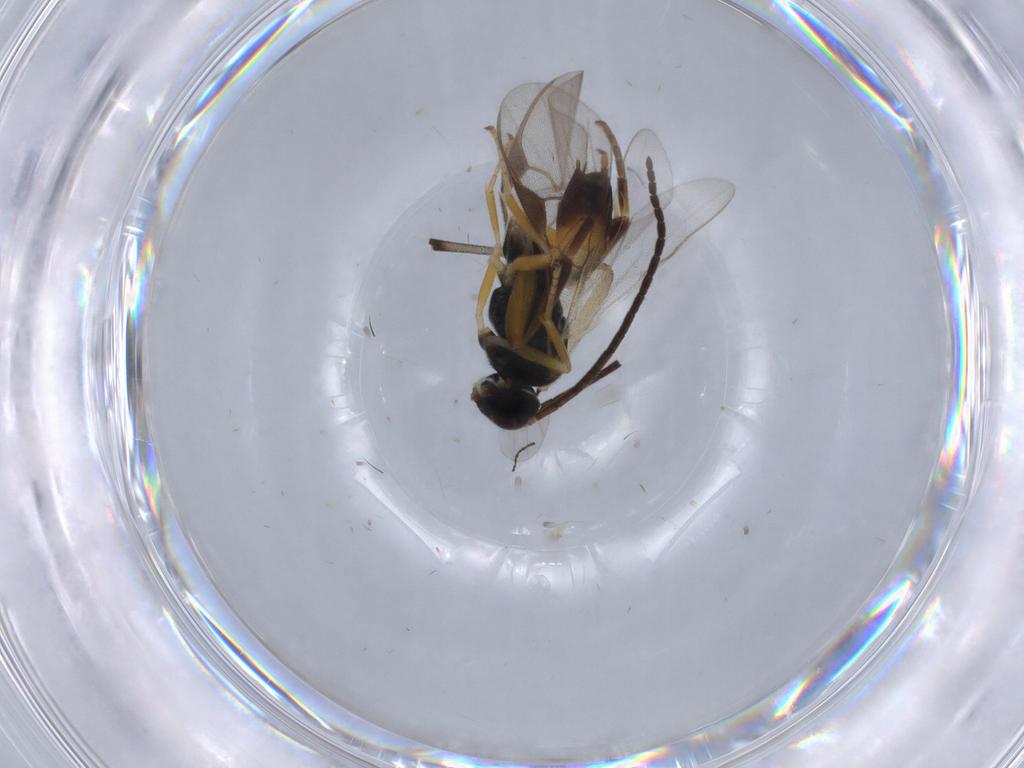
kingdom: Animalia
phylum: Arthropoda
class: Insecta
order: Hymenoptera
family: Braconidae
